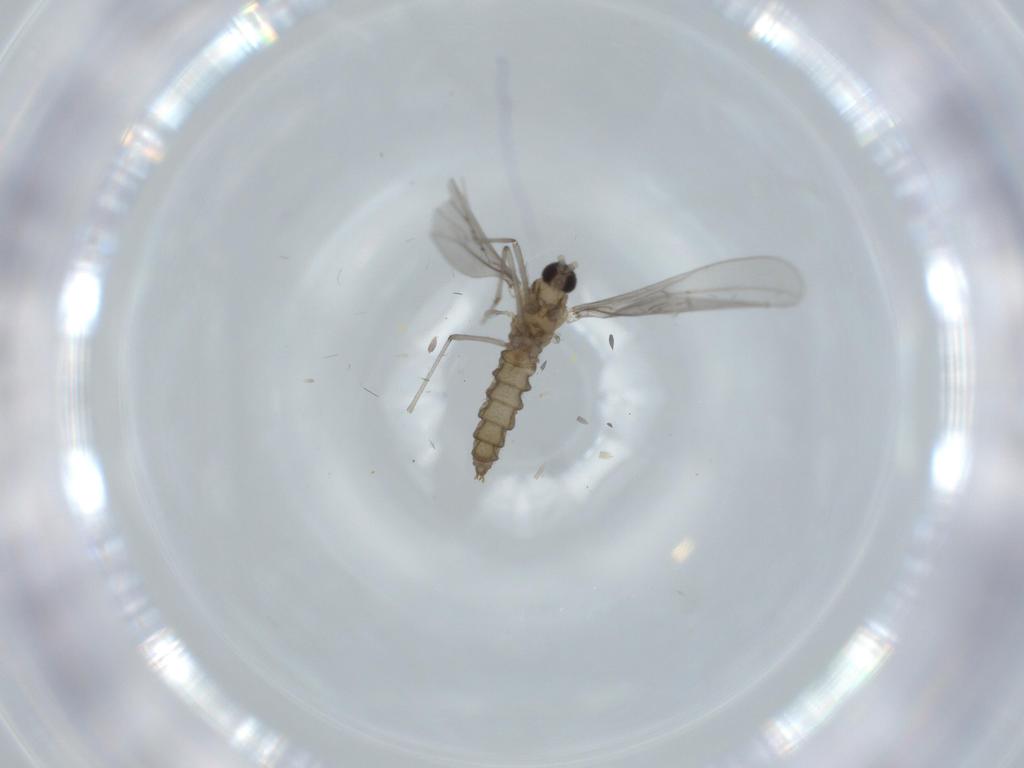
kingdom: Animalia
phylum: Arthropoda
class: Insecta
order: Diptera
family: Cecidomyiidae
